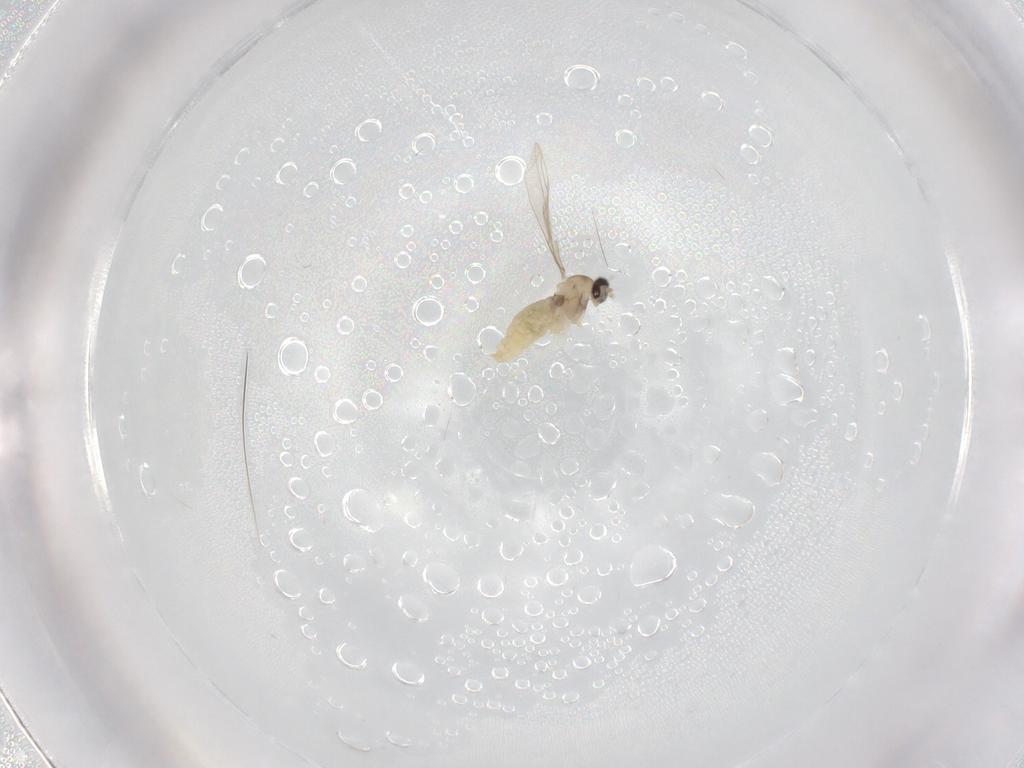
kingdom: Animalia
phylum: Arthropoda
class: Insecta
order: Diptera
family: Cecidomyiidae
